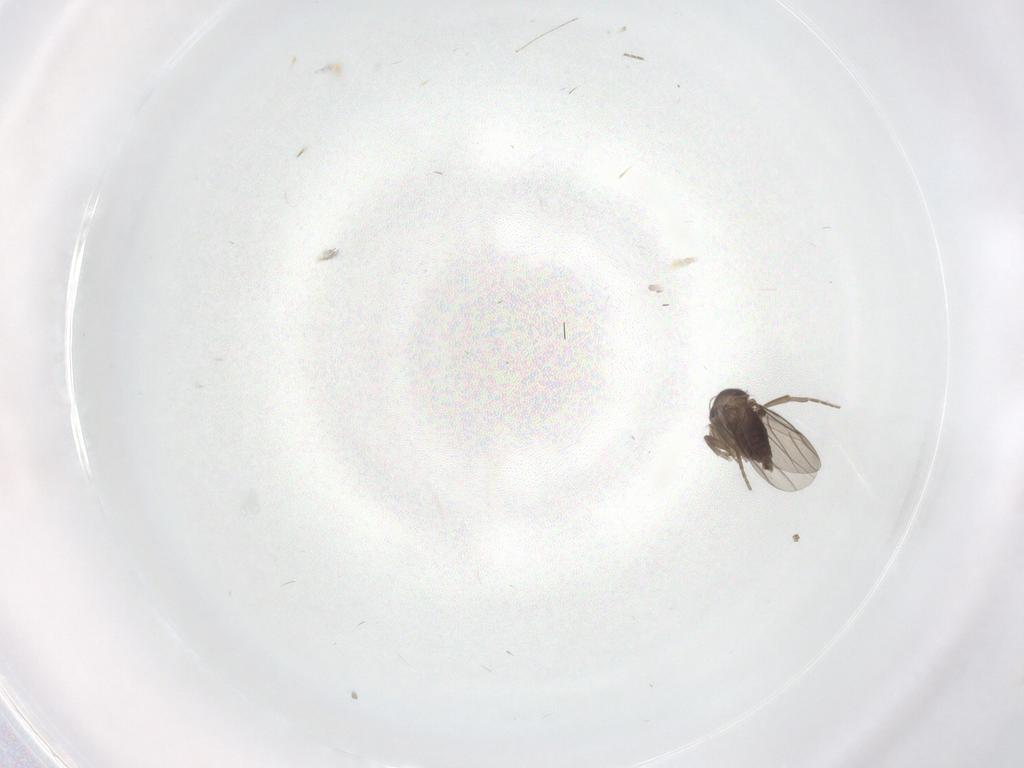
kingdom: Animalia
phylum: Arthropoda
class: Insecta
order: Diptera
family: Phoridae
